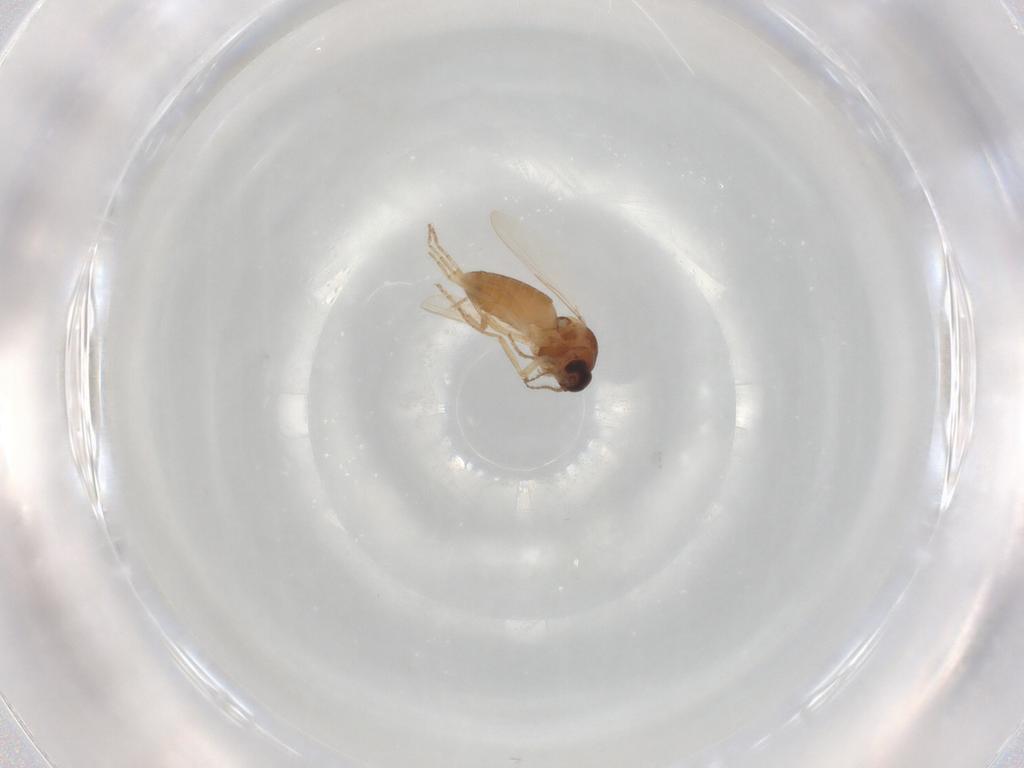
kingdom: Animalia
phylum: Arthropoda
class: Insecta
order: Diptera
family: Ceratopogonidae
